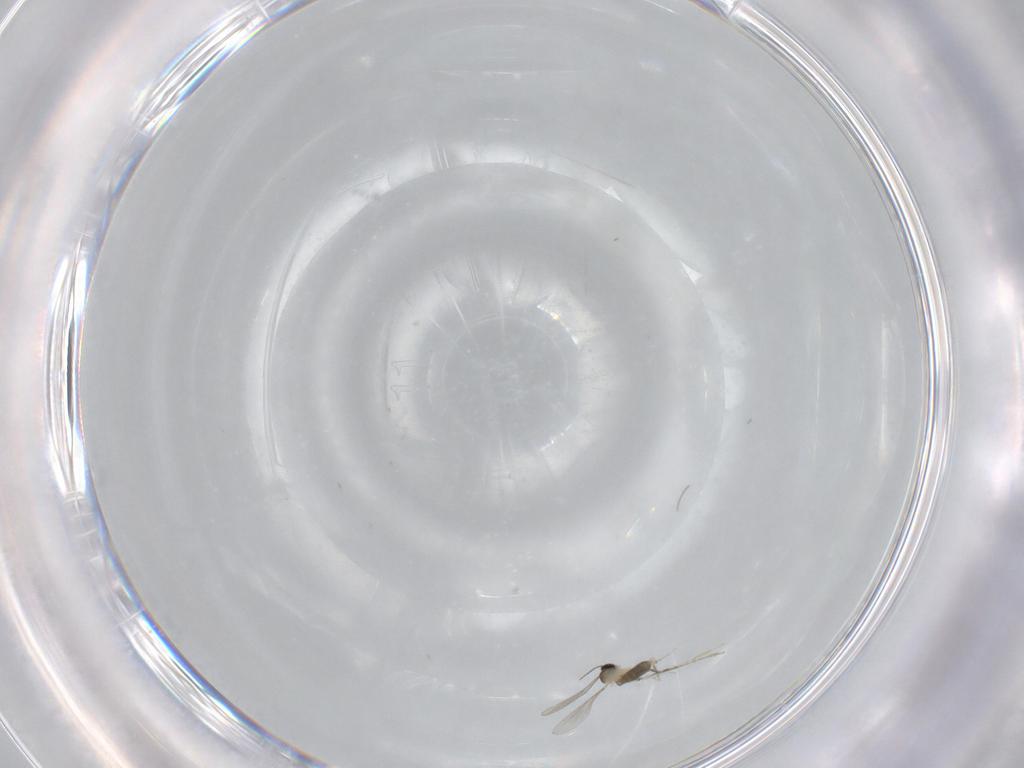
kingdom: Animalia
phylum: Arthropoda
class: Insecta
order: Diptera
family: Cecidomyiidae
